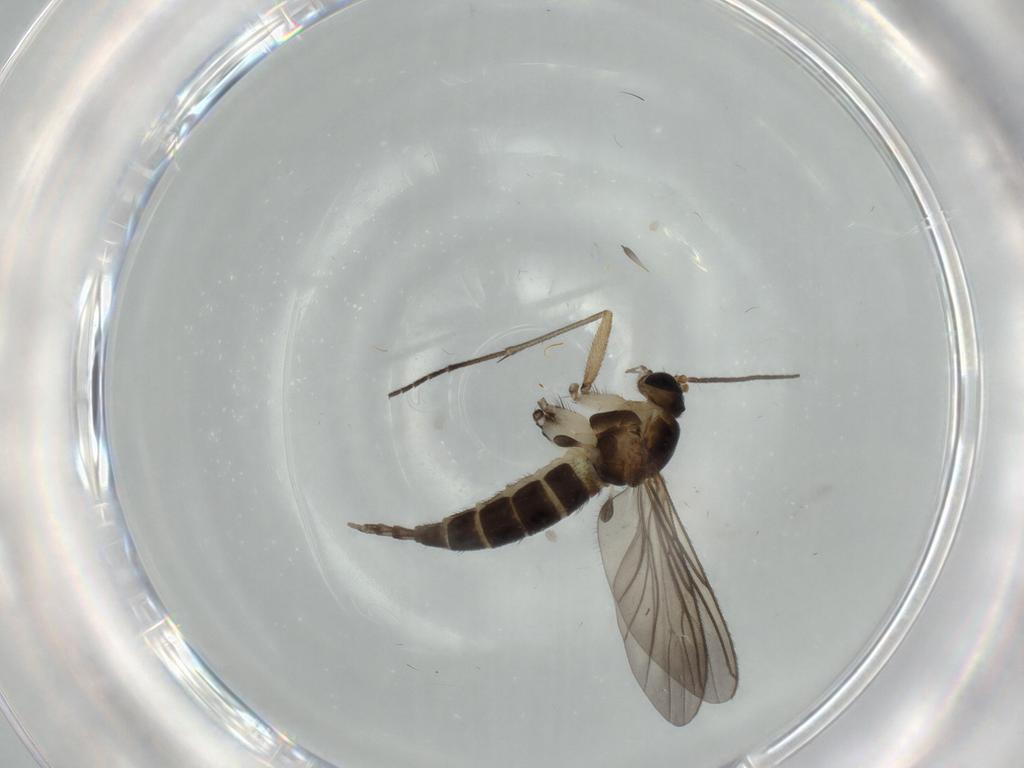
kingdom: Animalia
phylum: Arthropoda
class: Insecta
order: Diptera
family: Sciaridae
